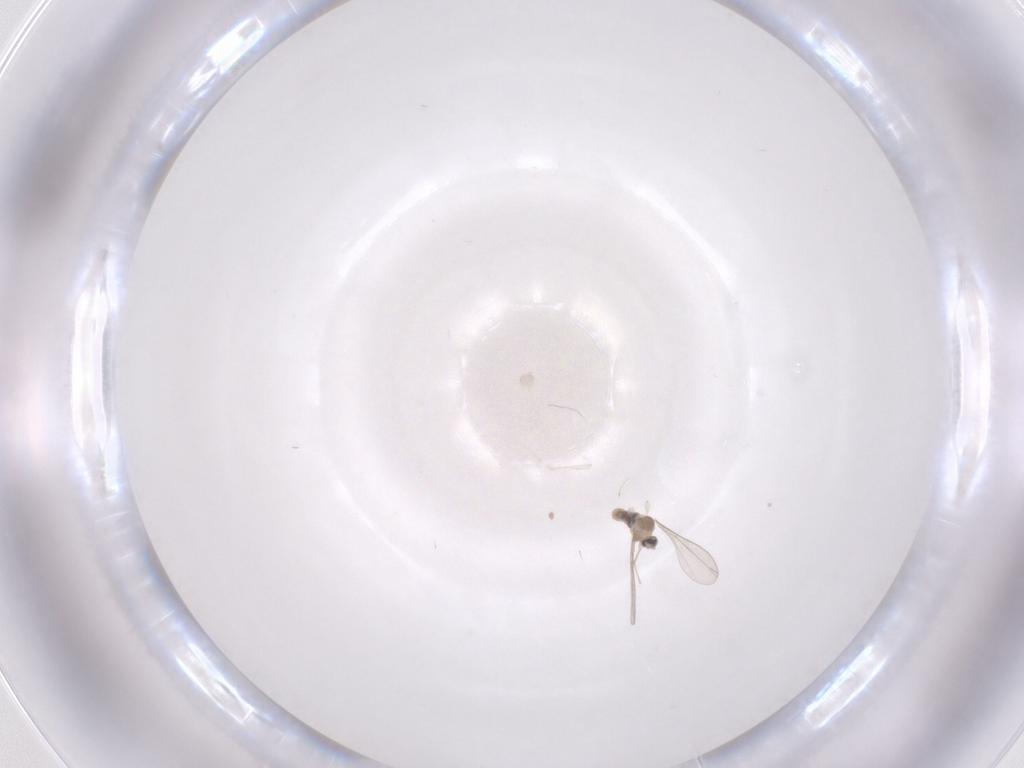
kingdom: Animalia
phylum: Arthropoda
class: Insecta
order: Diptera
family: Cecidomyiidae
